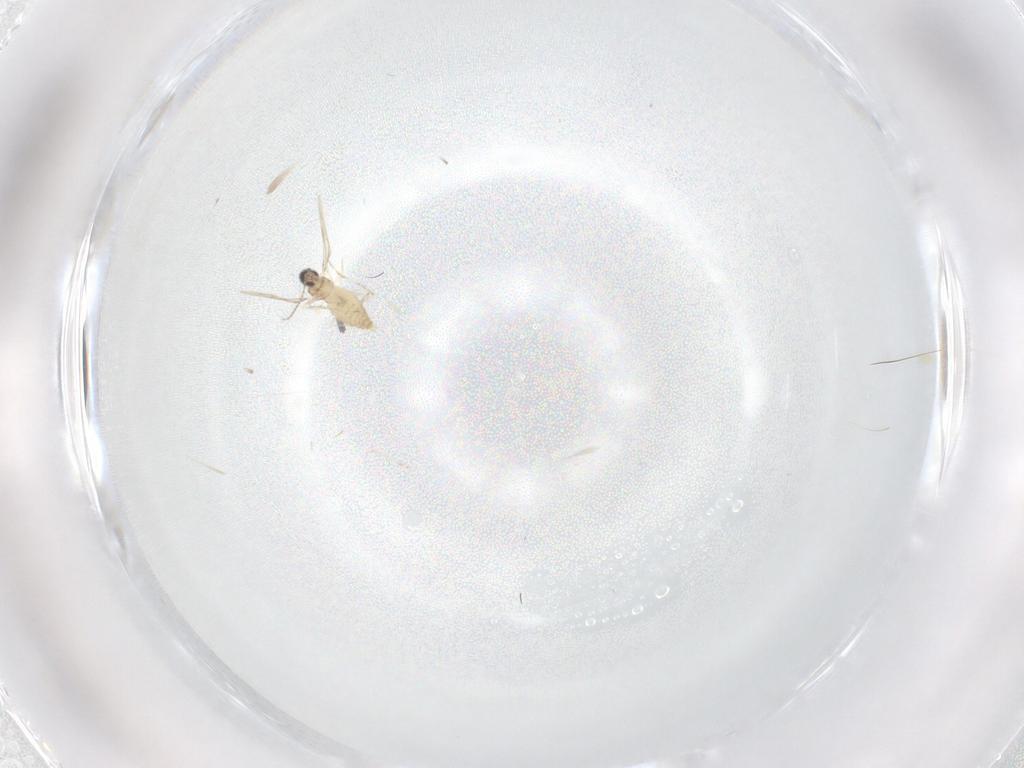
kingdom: Animalia
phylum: Arthropoda
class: Insecta
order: Diptera
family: Cecidomyiidae
